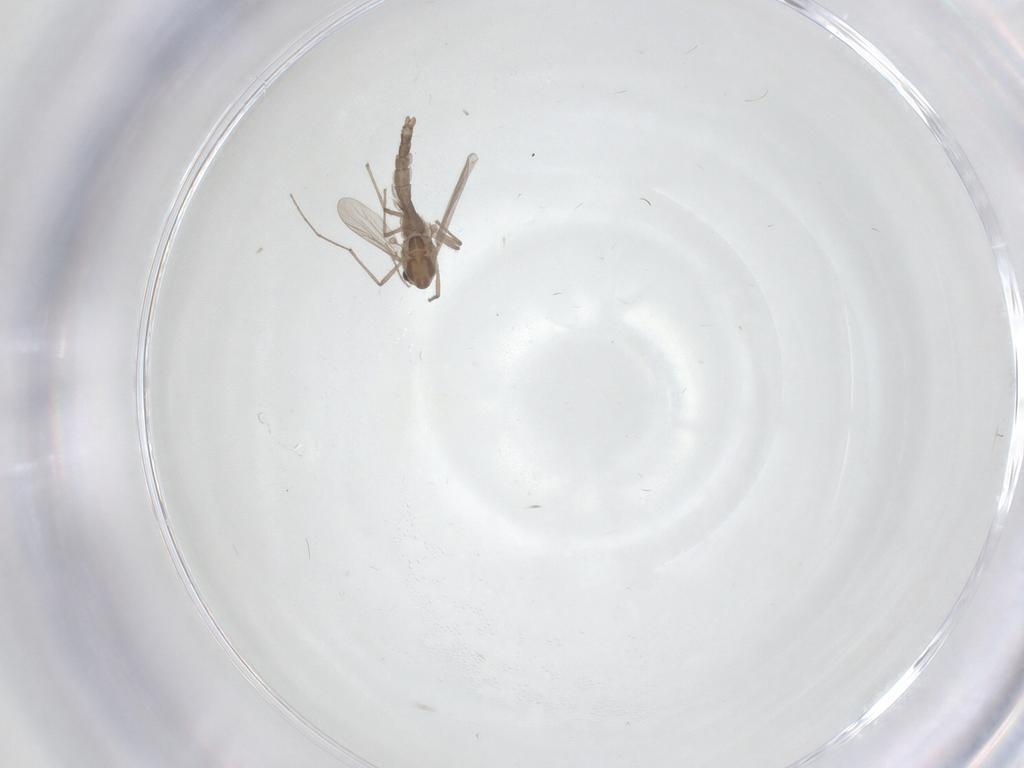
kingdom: Animalia
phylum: Arthropoda
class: Insecta
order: Diptera
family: Chironomidae
